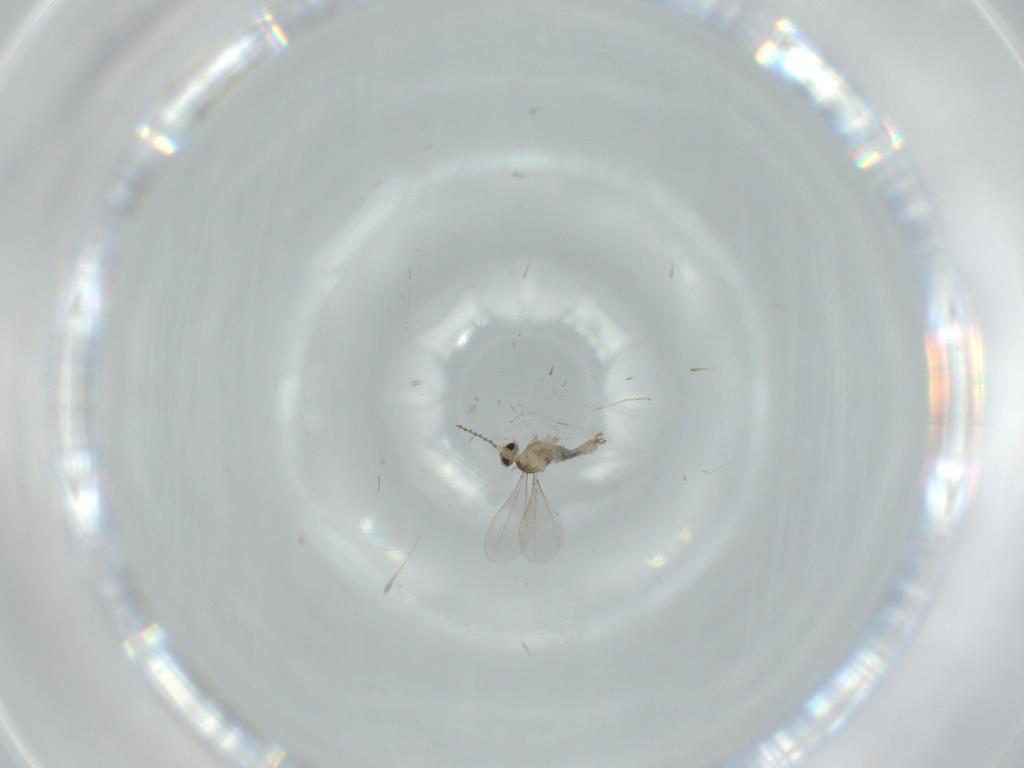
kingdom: Animalia
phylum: Arthropoda
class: Insecta
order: Diptera
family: Cecidomyiidae
